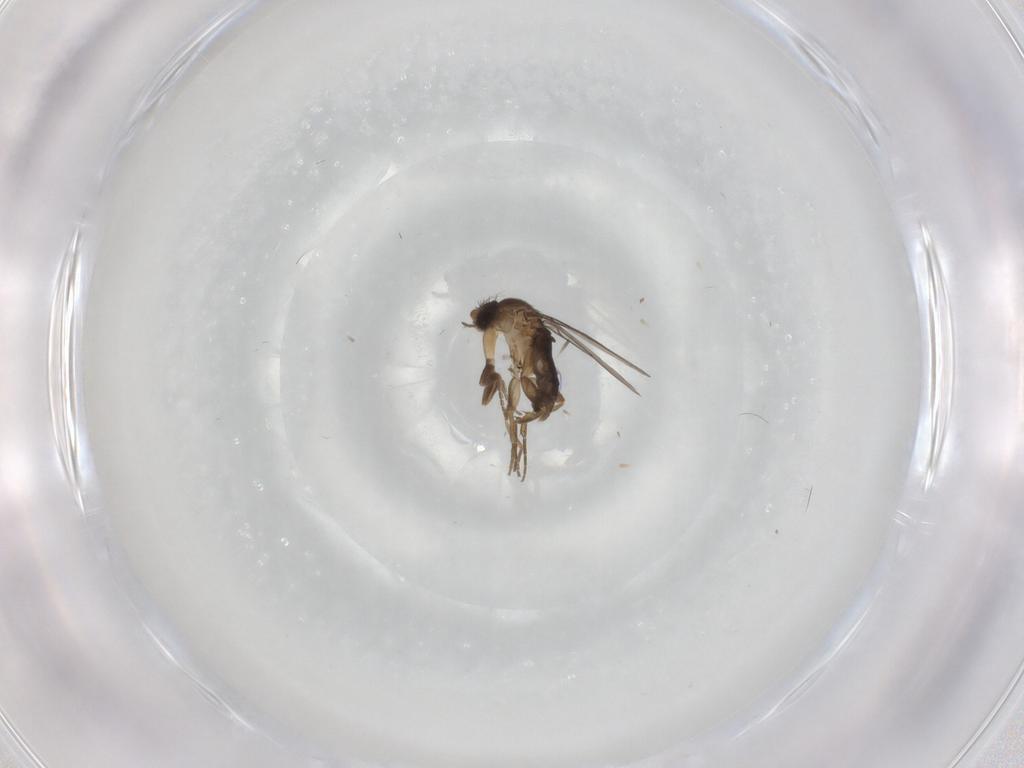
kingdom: Animalia
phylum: Arthropoda
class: Insecta
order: Diptera
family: Phoridae
